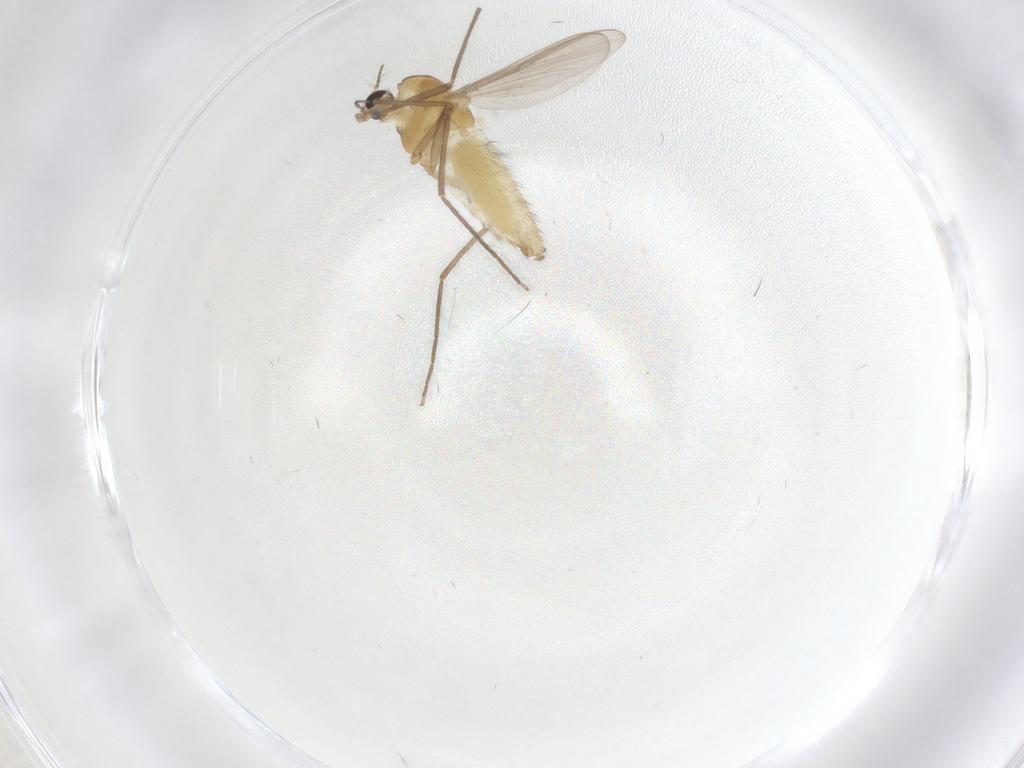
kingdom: Animalia
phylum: Arthropoda
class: Insecta
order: Diptera
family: Chironomidae
